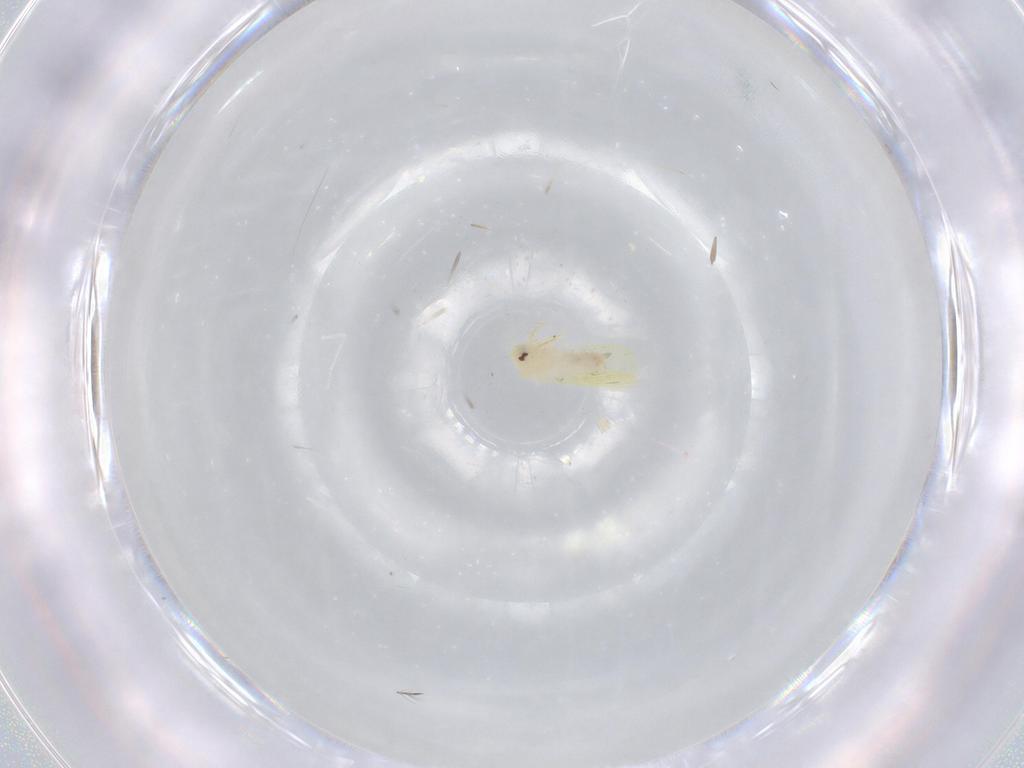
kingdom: Animalia
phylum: Arthropoda
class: Insecta
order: Hemiptera
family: Aleyrodidae
